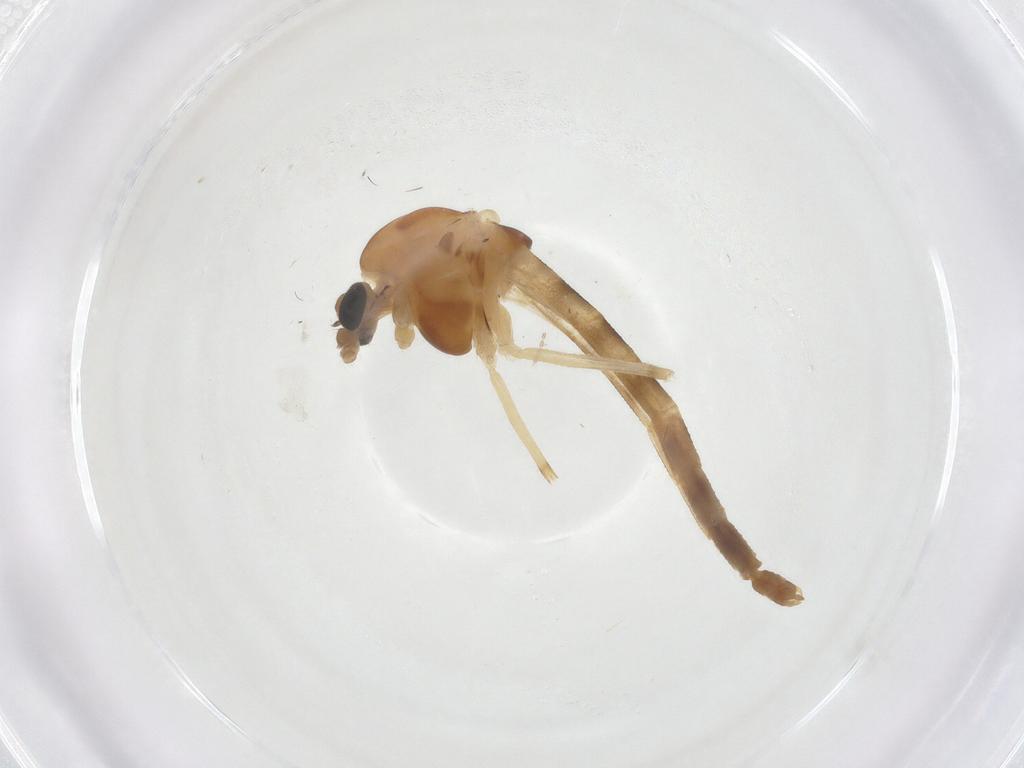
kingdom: Animalia
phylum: Arthropoda
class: Insecta
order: Diptera
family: Chironomidae
